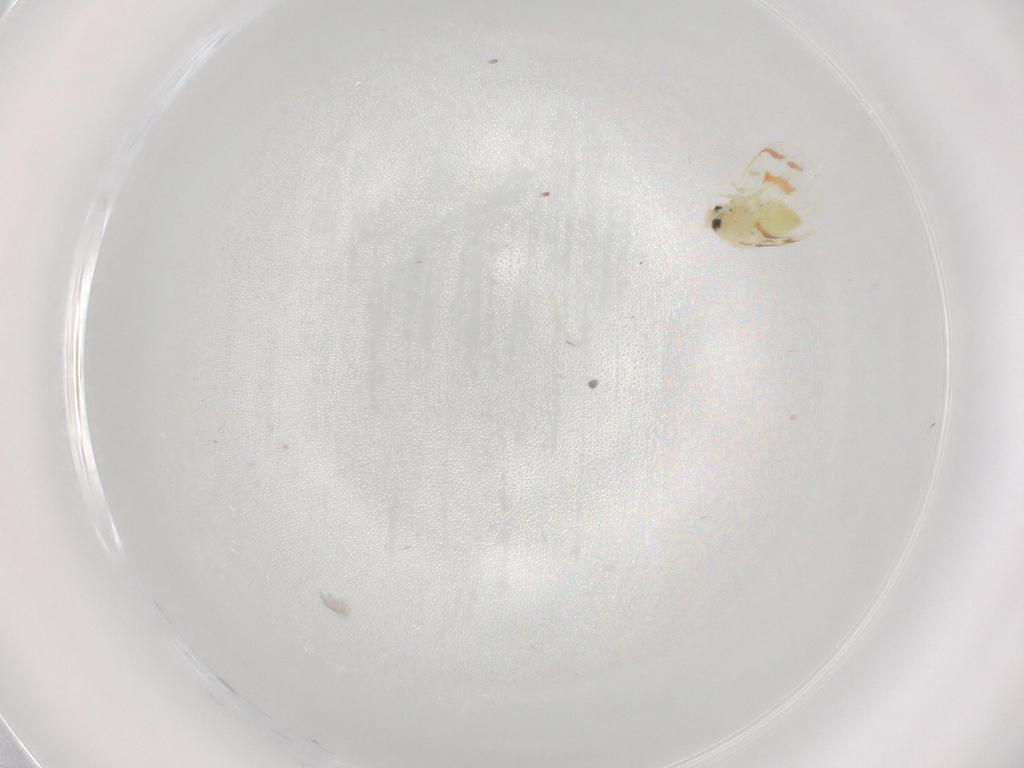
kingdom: Animalia
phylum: Arthropoda
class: Insecta
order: Hemiptera
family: Aleyrodidae
